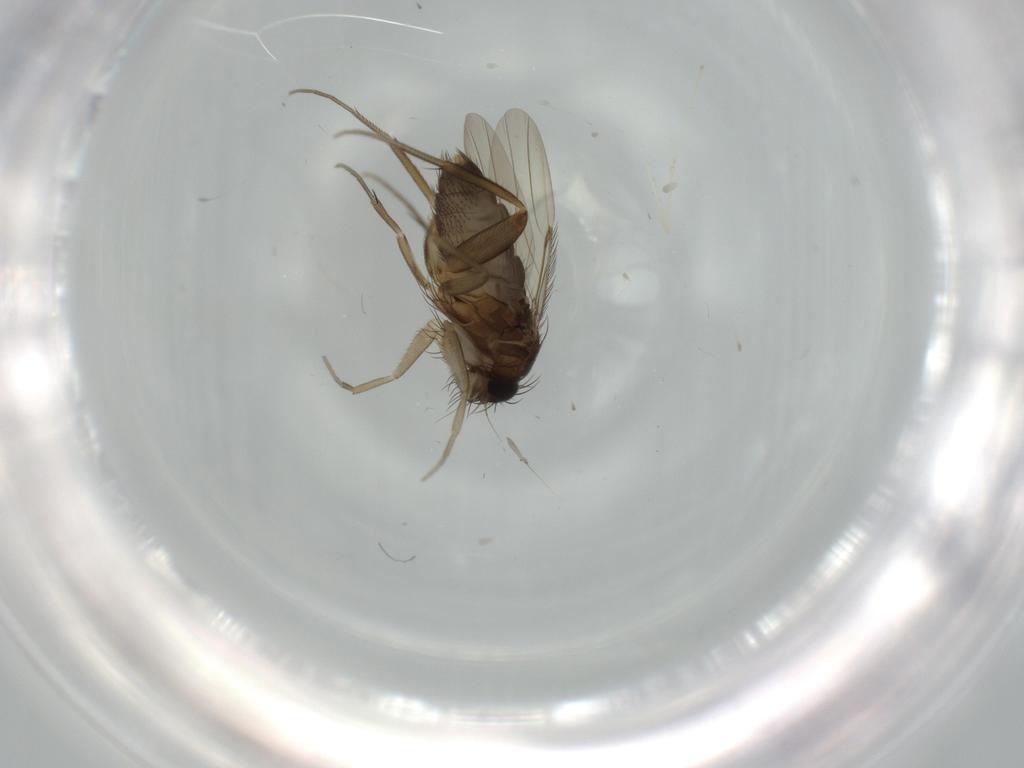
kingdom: Animalia
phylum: Arthropoda
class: Insecta
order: Diptera
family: Phoridae
